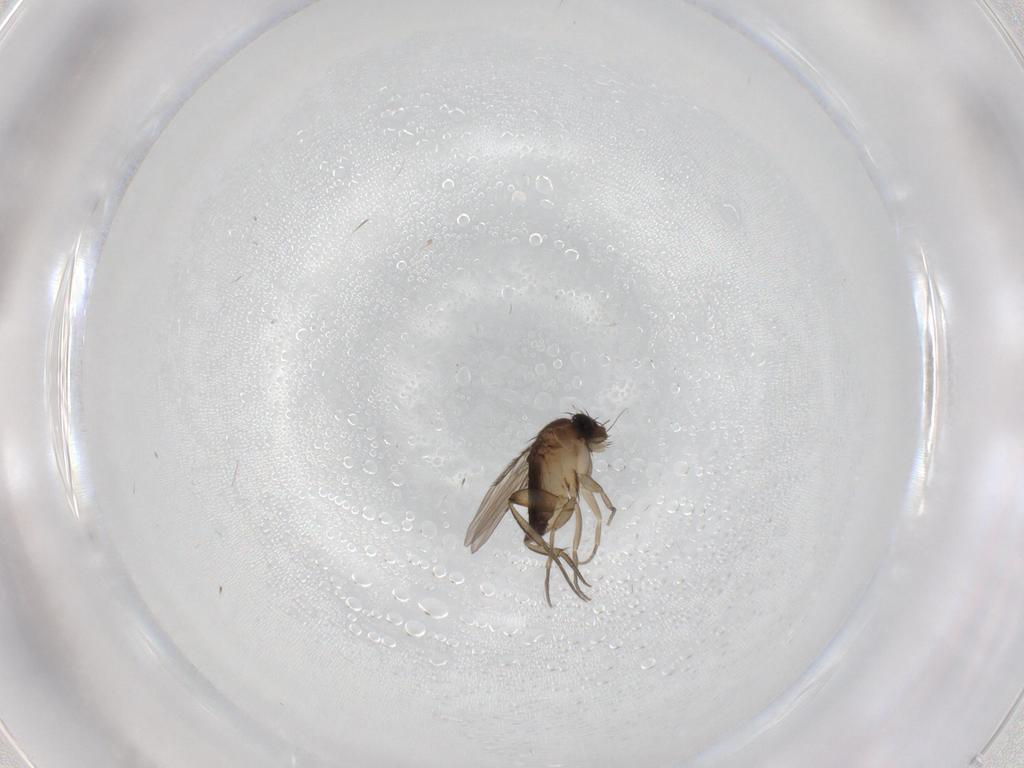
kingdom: Animalia
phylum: Arthropoda
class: Insecta
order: Diptera
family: Phoridae
